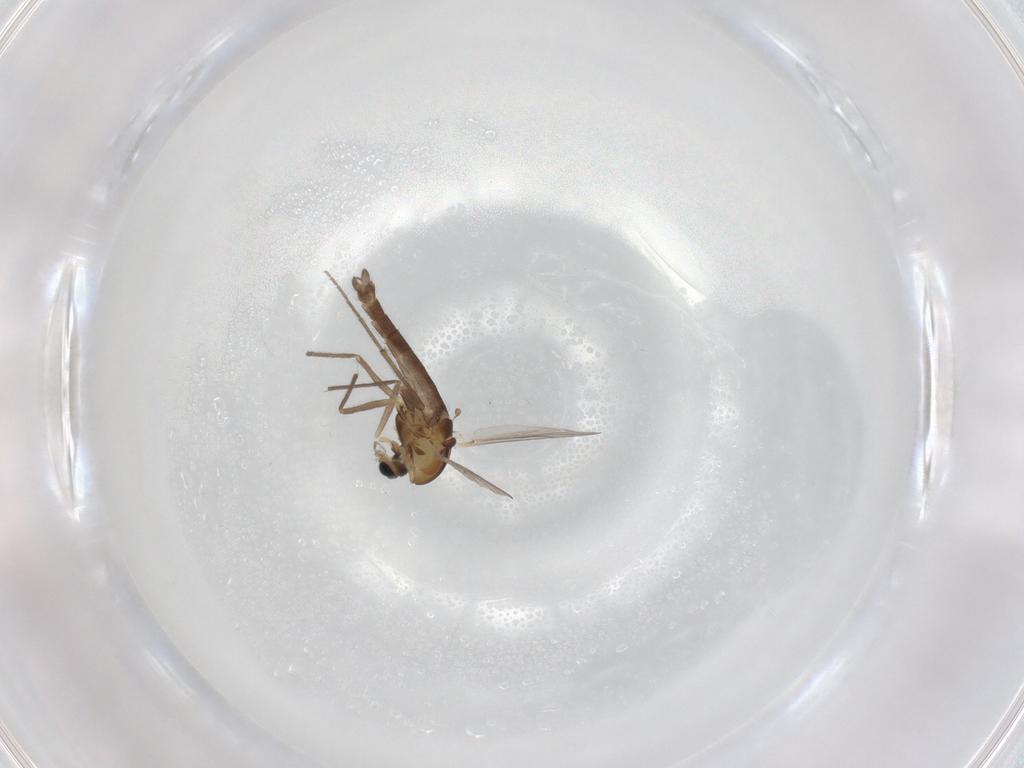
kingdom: Animalia
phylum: Arthropoda
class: Insecta
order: Diptera
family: Chironomidae
